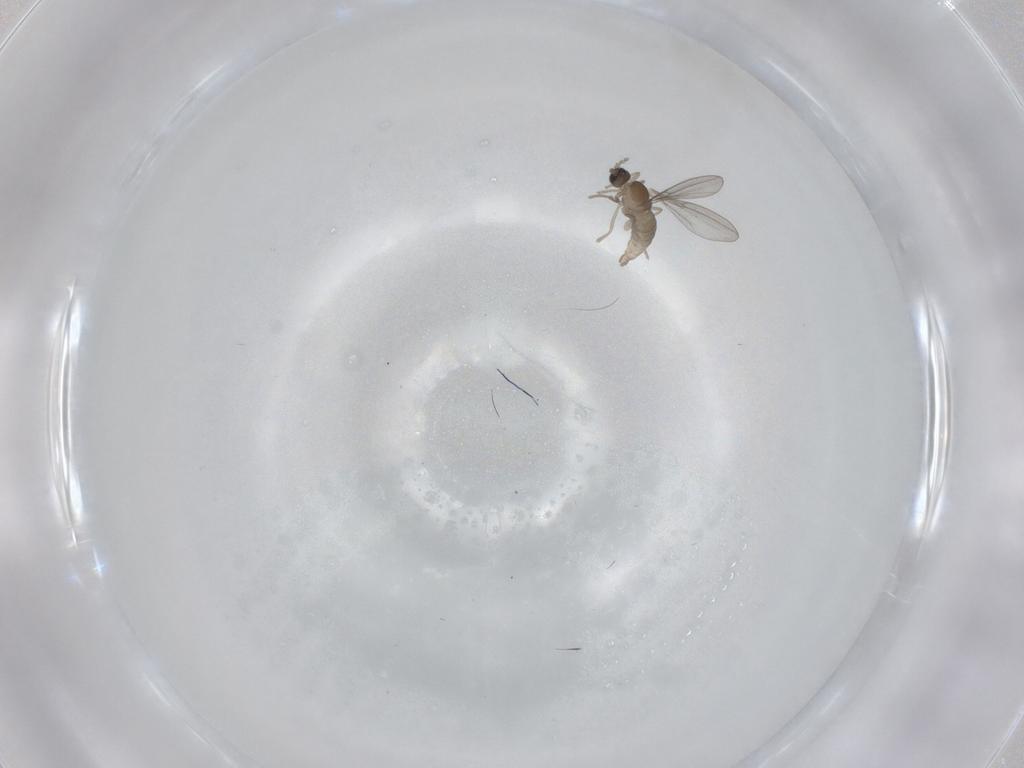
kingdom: Animalia
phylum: Arthropoda
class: Insecta
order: Diptera
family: Cecidomyiidae
